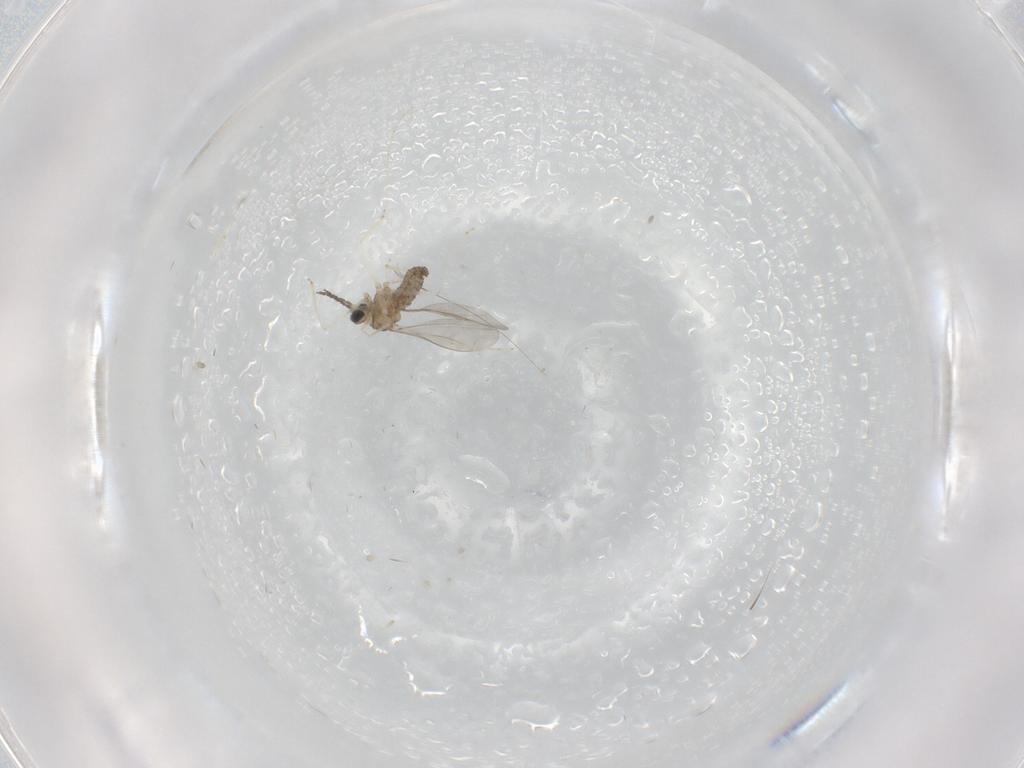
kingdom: Animalia
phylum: Arthropoda
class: Insecta
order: Diptera
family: Cecidomyiidae
